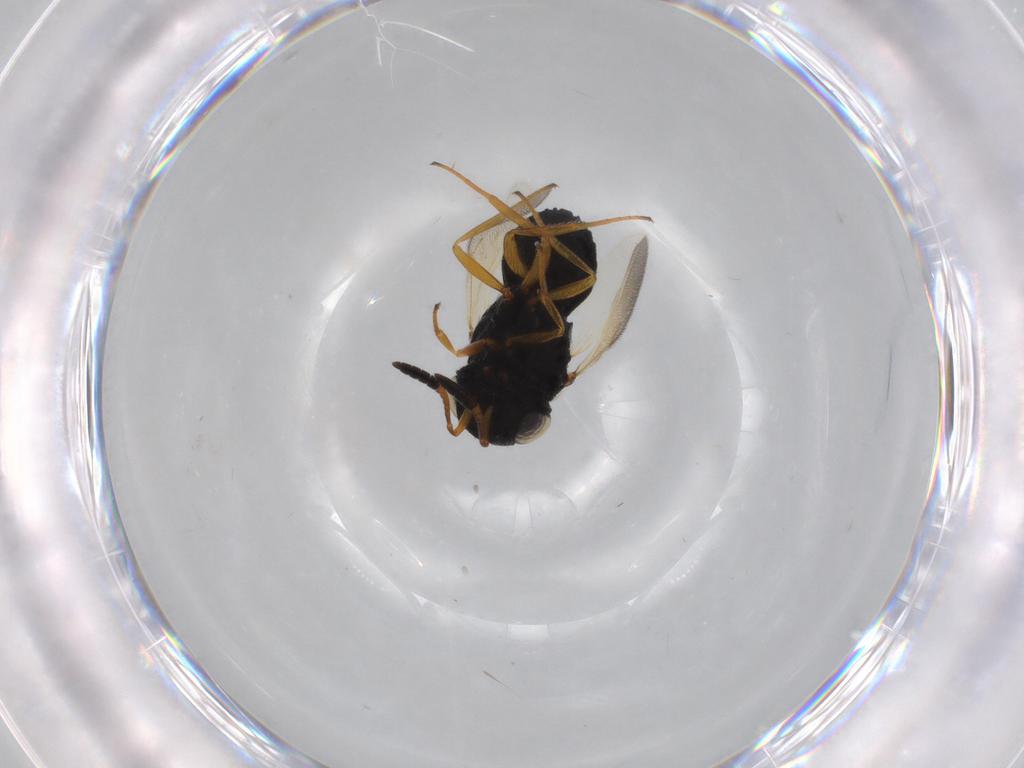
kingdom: Animalia
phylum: Arthropoda
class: Insecta
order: Hymenoptera
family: Scelionidae
